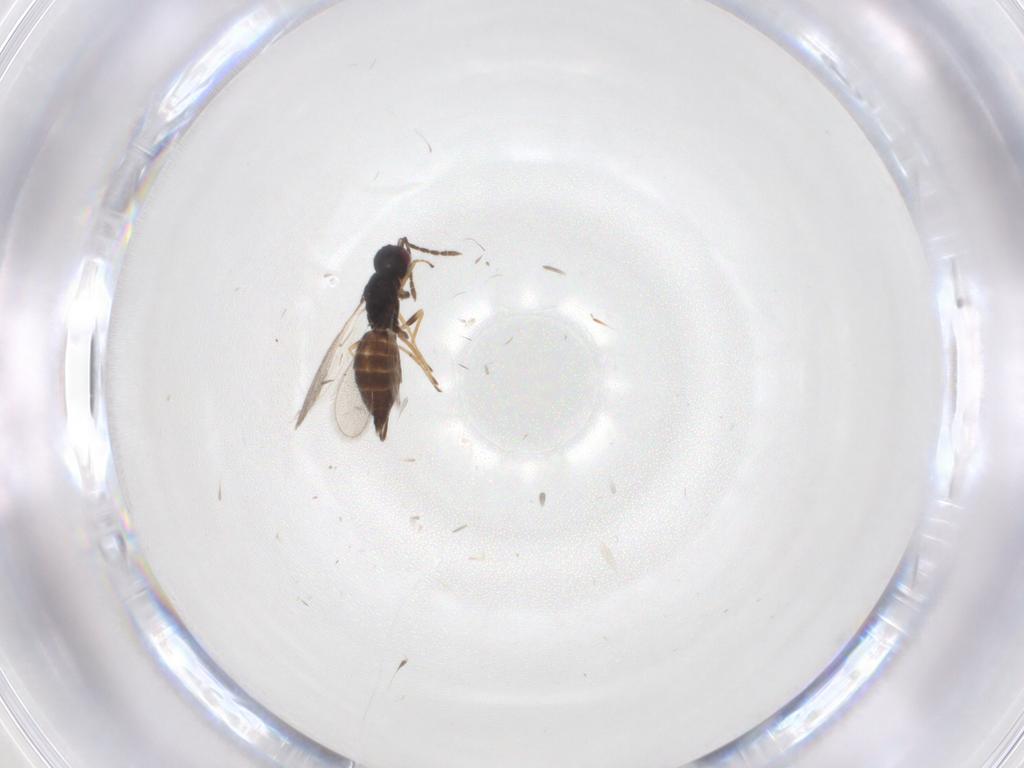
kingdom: Animalia
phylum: Arthropoda
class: Insecta
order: Hymenoptera
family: Eulophidae
